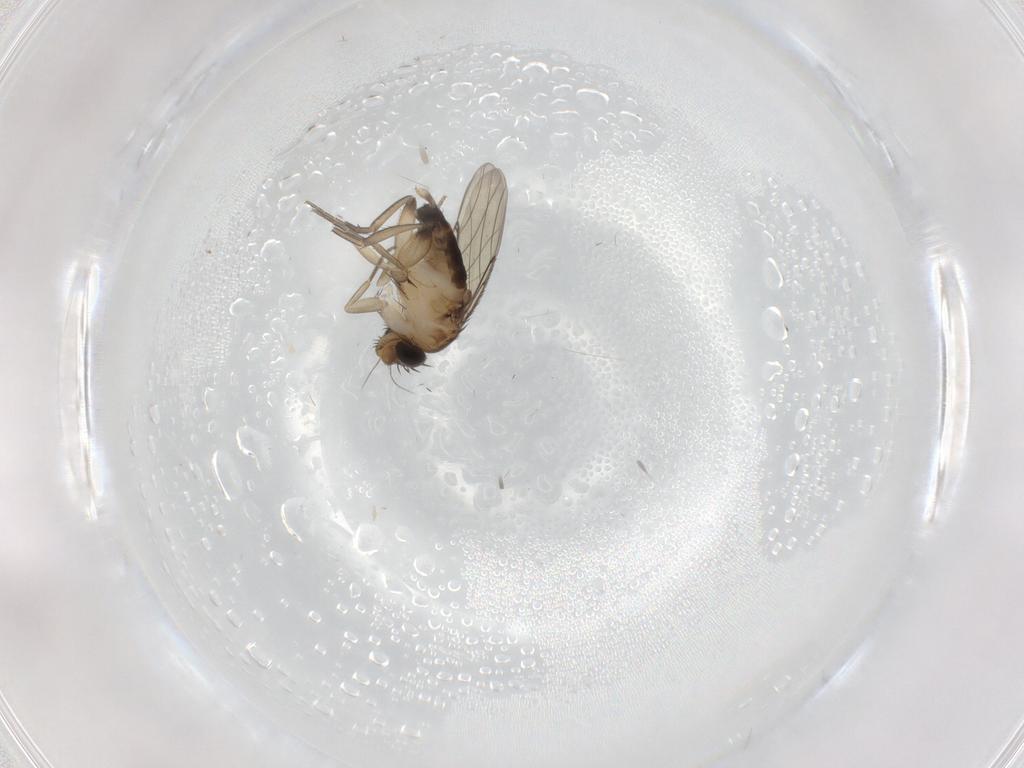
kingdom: Animalia
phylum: Arthropoda
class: Insecta
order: Diptera
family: Phoridae
